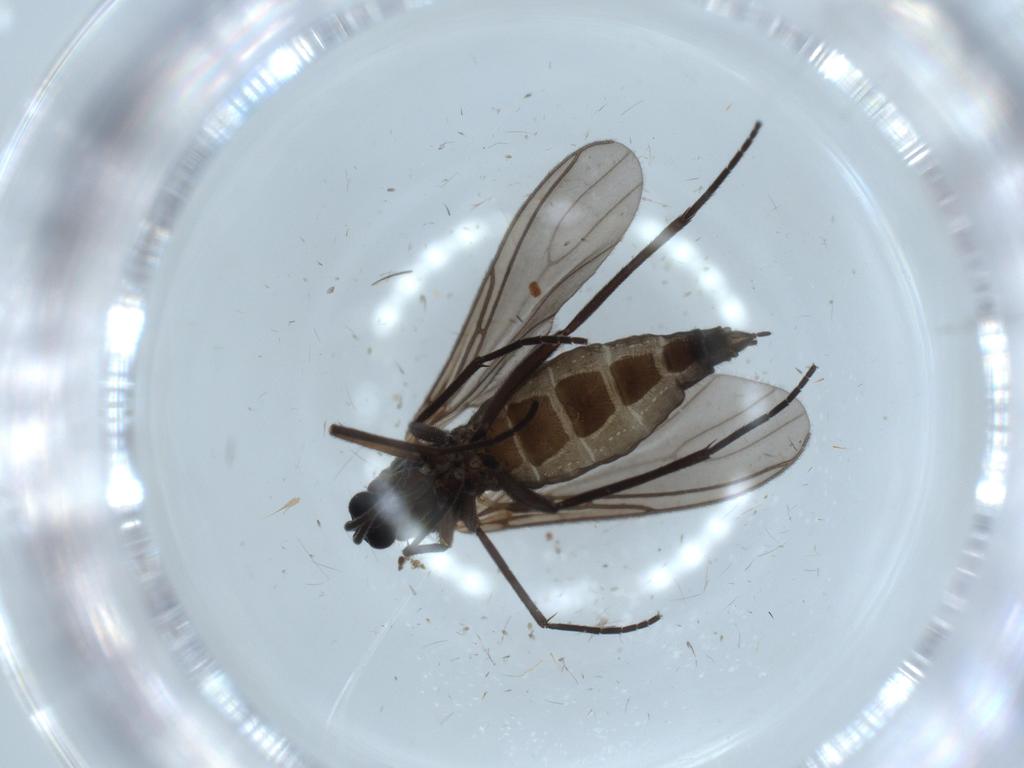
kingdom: Animalia
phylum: Arthropoda
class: Insecta
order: Diptera
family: Sciaridae
